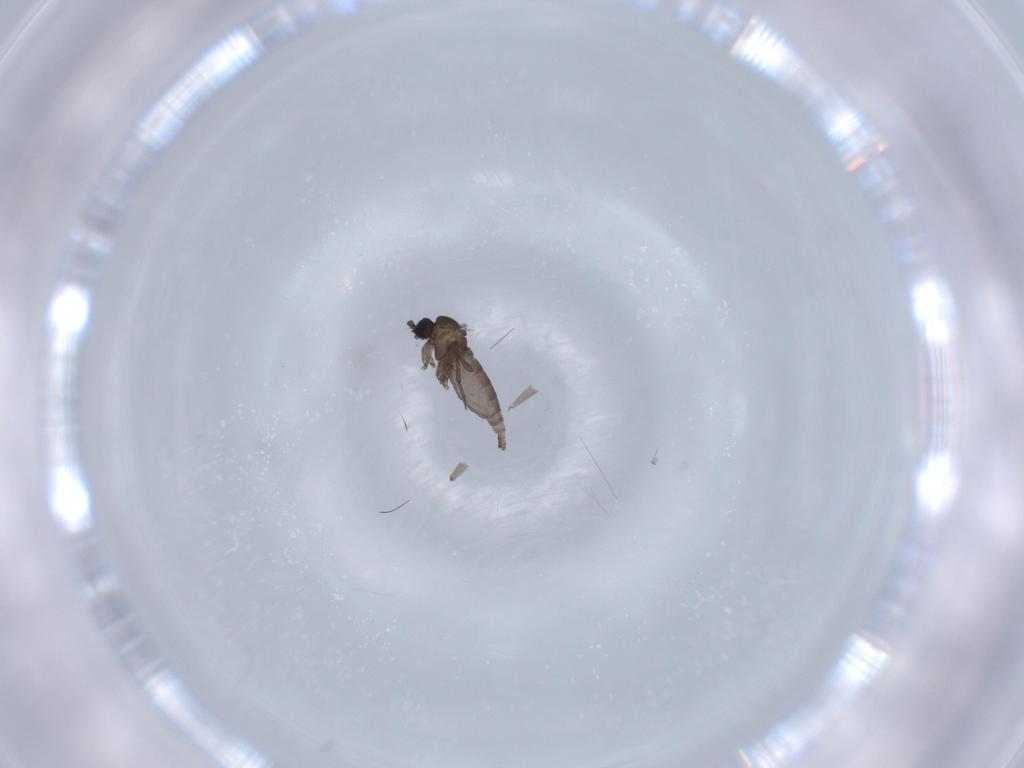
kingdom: Animalia
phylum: Arthropoda
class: Insecta
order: Diptera
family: Sciaridae
